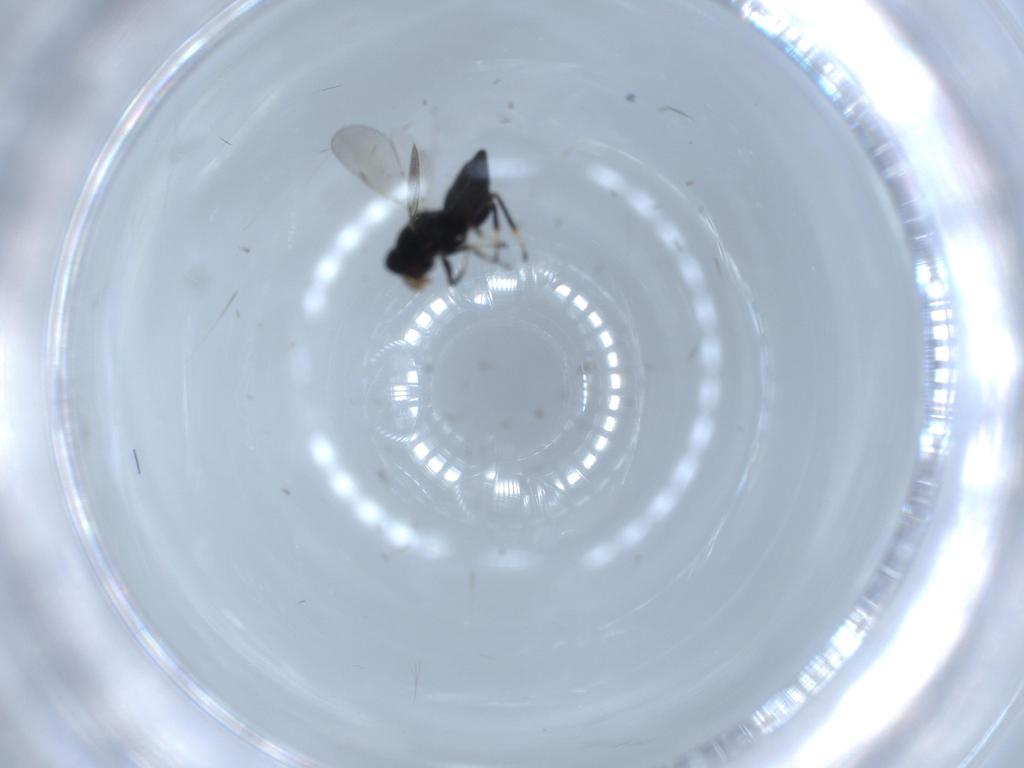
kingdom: Animalia
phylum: Arthropoda
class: Insecta
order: Hymenoptera
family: Eulophidae
